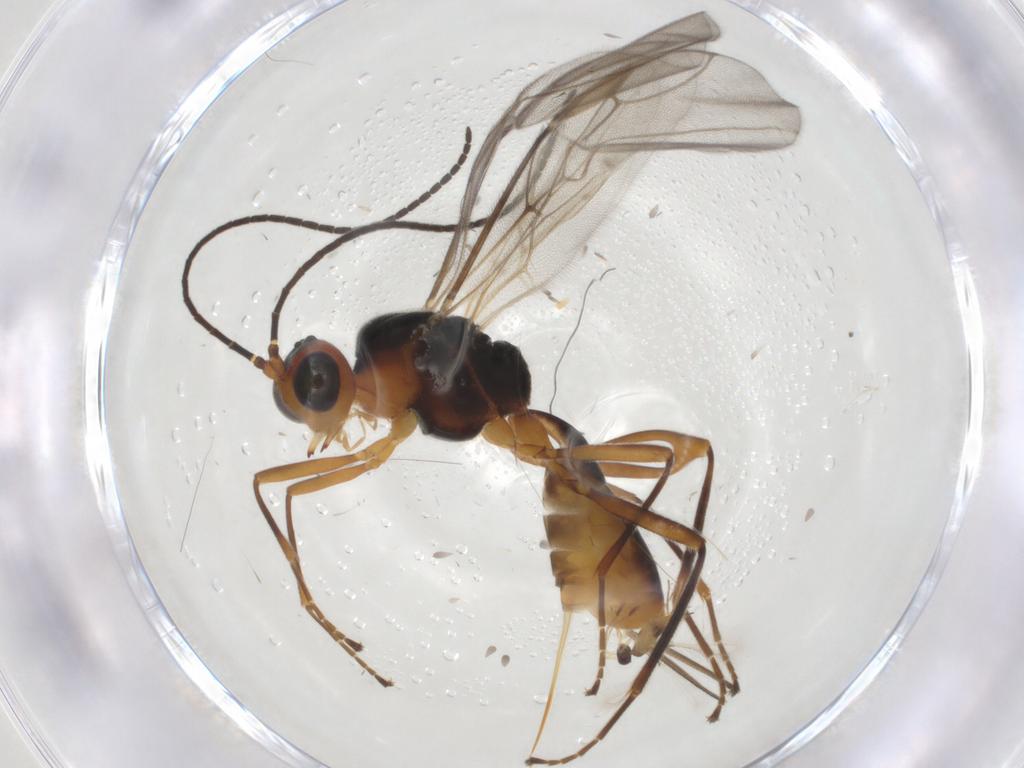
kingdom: Animalia
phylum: Arthropoda
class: Insecta
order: Hymenoptera
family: Braconidae
